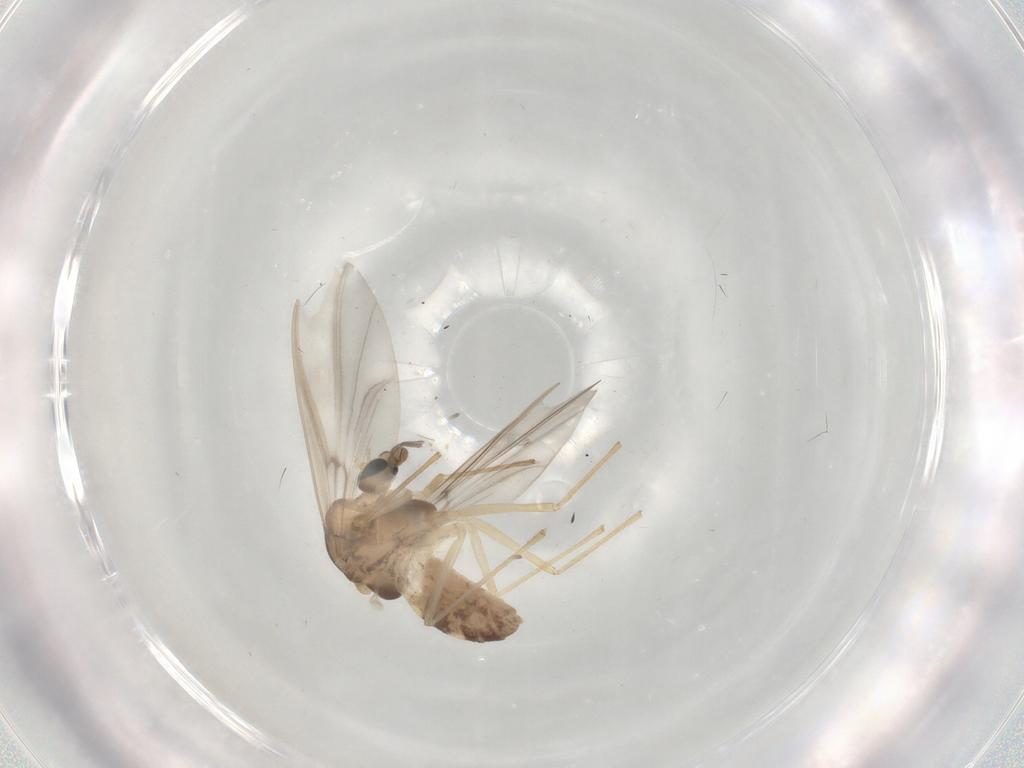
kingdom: Animalia
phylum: Arthropoda
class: Insecta
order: Diptera
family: Chironomidae
